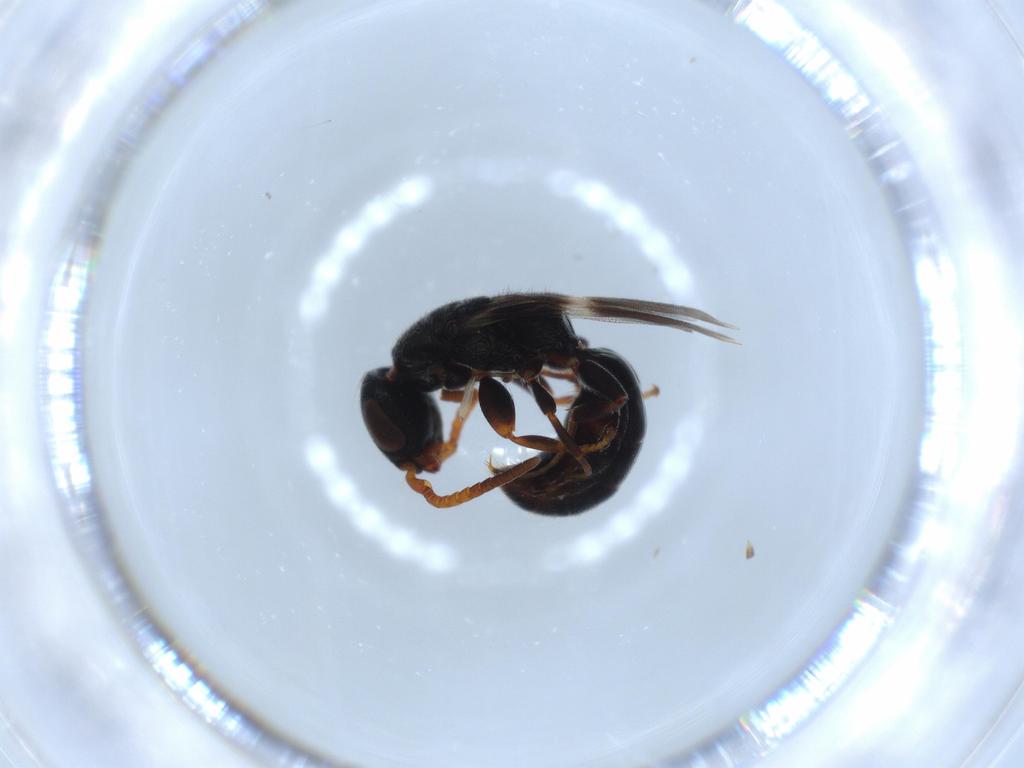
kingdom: Animalia
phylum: Arthropoda
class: Insecta
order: Hymenoptera
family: Bethylidae
